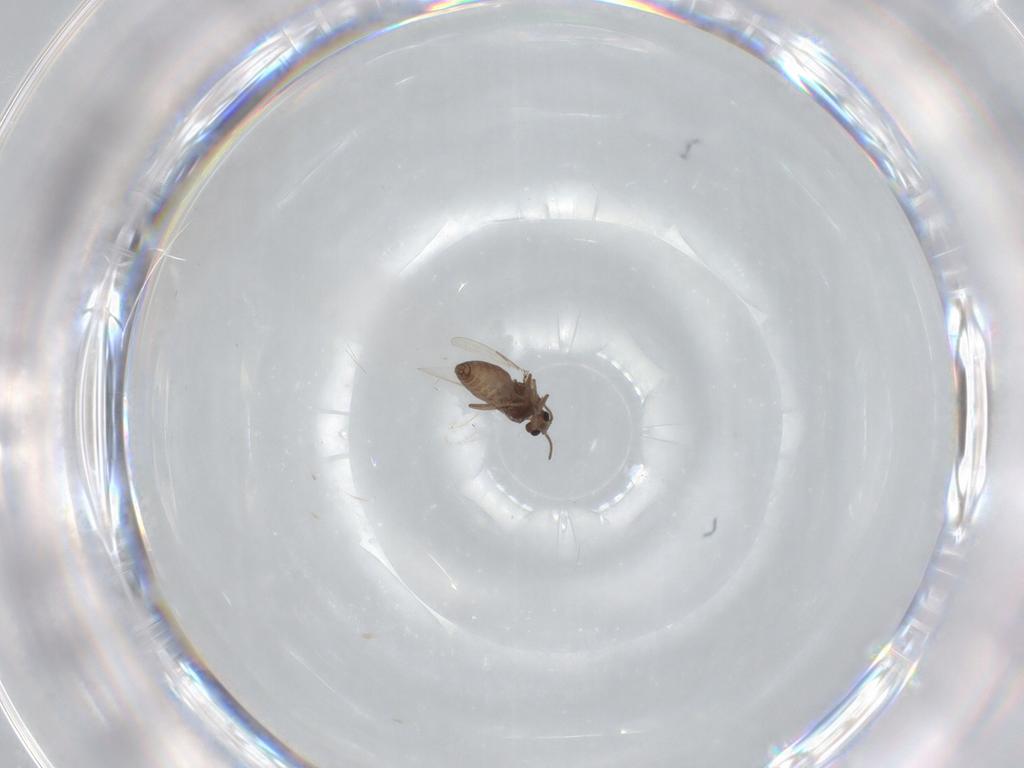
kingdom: Animalia
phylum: Arthropoda
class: Insecta
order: Diptera
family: Ceratopogonidae
